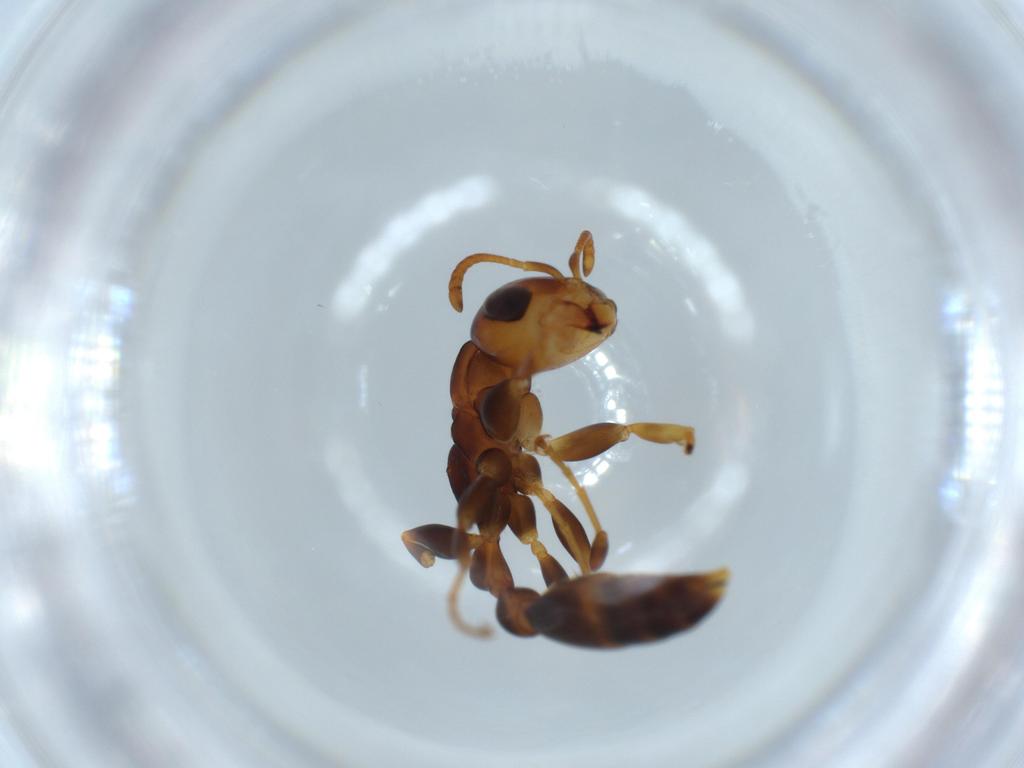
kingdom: Animalia
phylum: Arthropoda
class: Insecta
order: Hymenoptera
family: Formicidae
